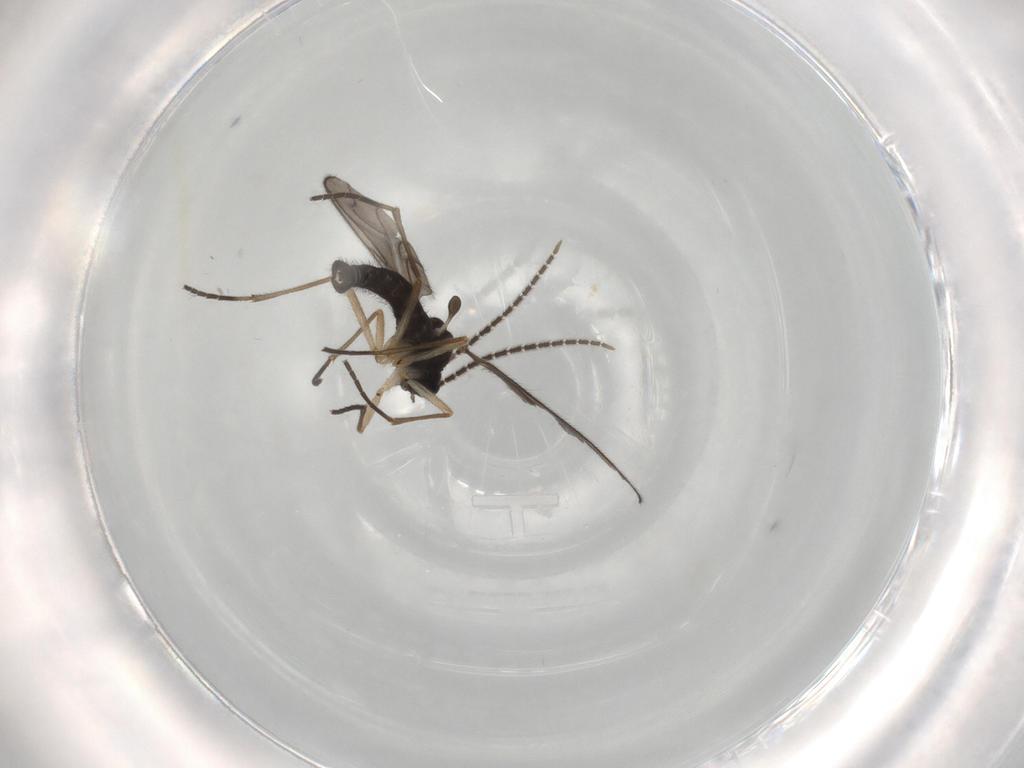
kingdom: Animalia
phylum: Arthropoda
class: Insecta
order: Diptera
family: Sciaridae
